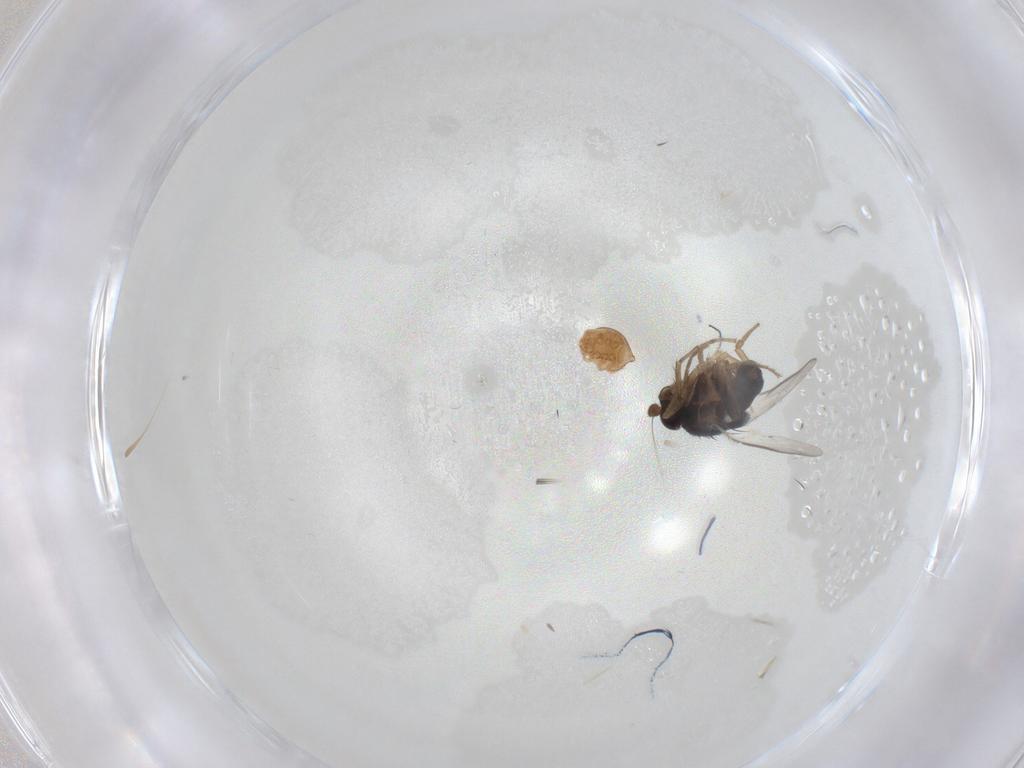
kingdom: Animalia
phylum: Arthropoda
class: Insecta
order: Diptera
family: Sphaeroceridae
